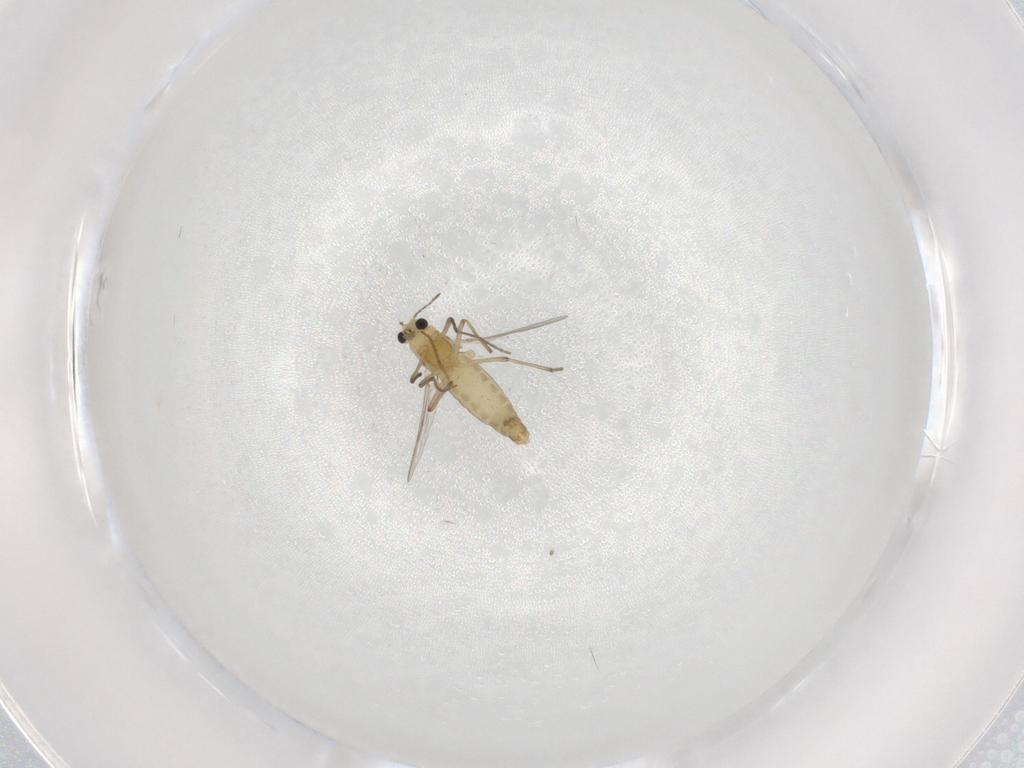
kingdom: Animalia
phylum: Arthropoda
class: Insecta
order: Diptera
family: Chironomidae
